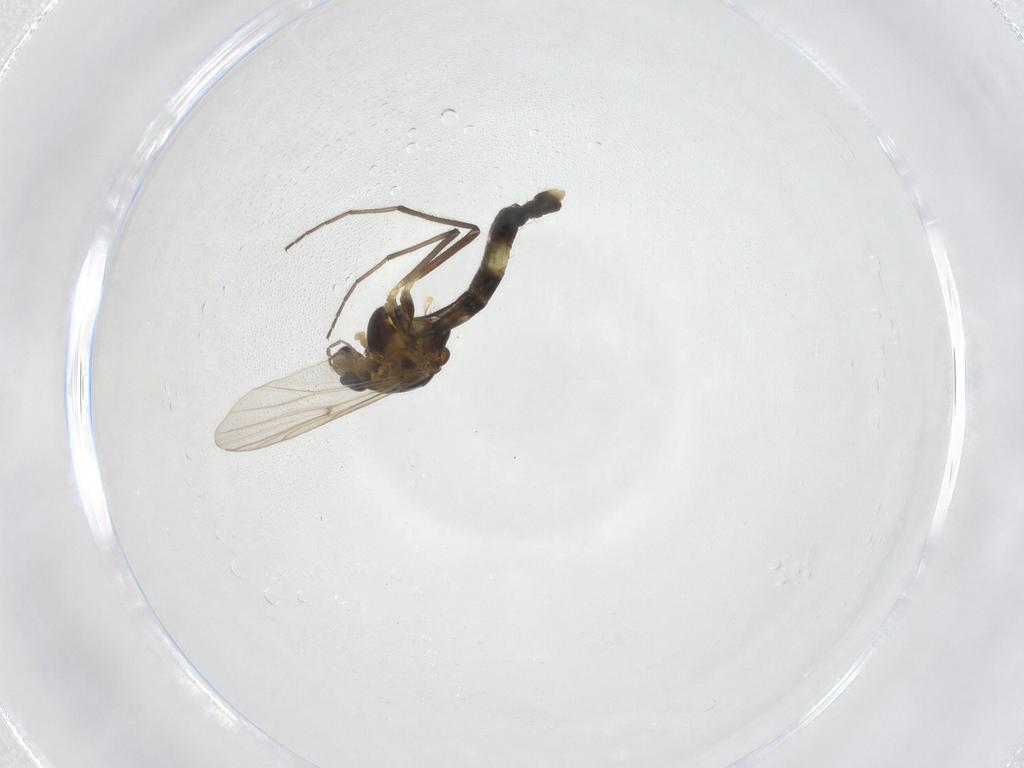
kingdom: Animalia
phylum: Arthropoda
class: Insecta
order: Diptera
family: Chironomidae
